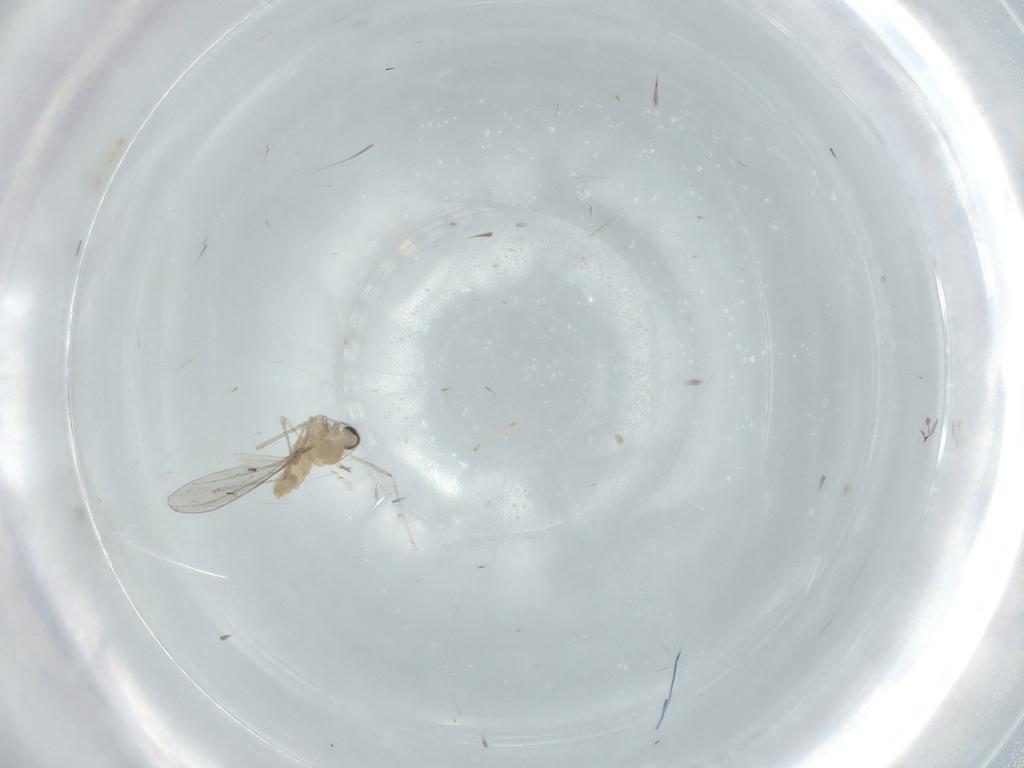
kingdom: Animalia
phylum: Arthropoda
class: Insecta
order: Diptera
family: Cecidomyiidae
